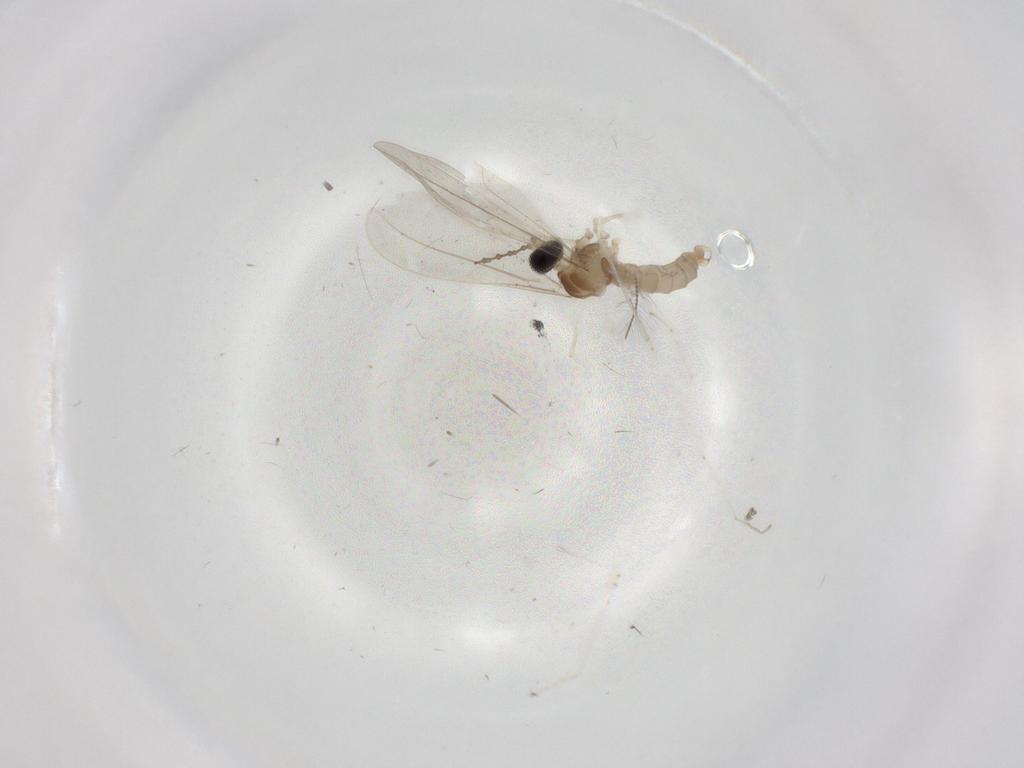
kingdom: Animalia
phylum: Arthropoda
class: Insecta
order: Diptera
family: Cecidomyiidae
